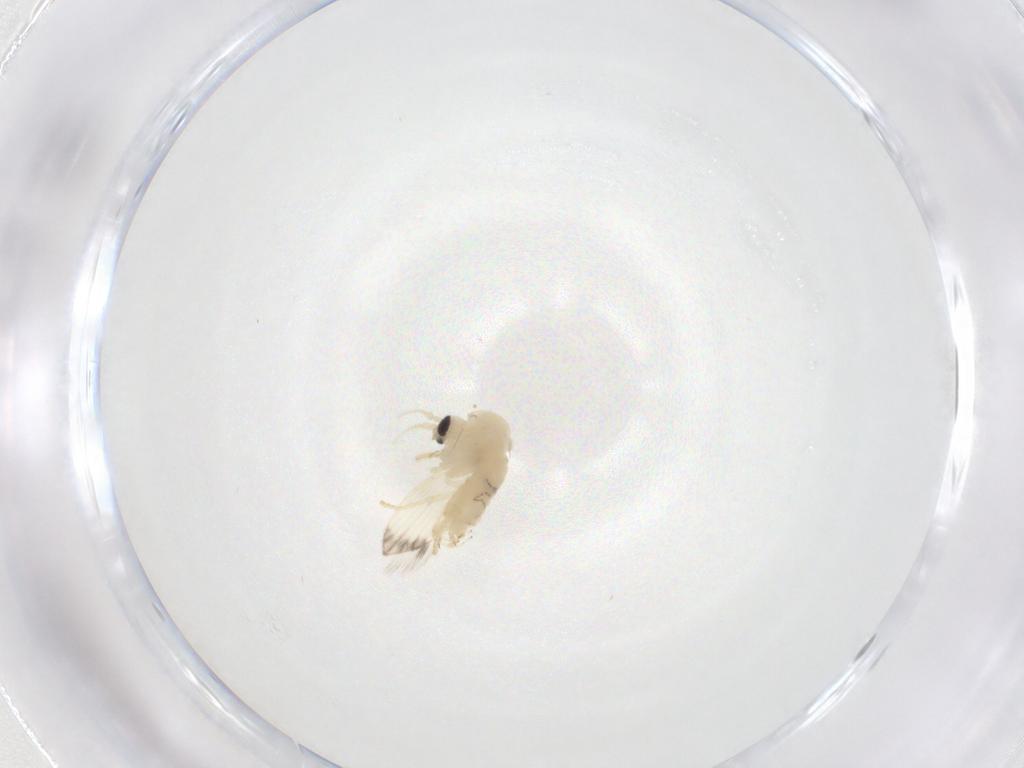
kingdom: Animalia
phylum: Arthropoda
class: Insecta
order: Diptera
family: Psychodidae
